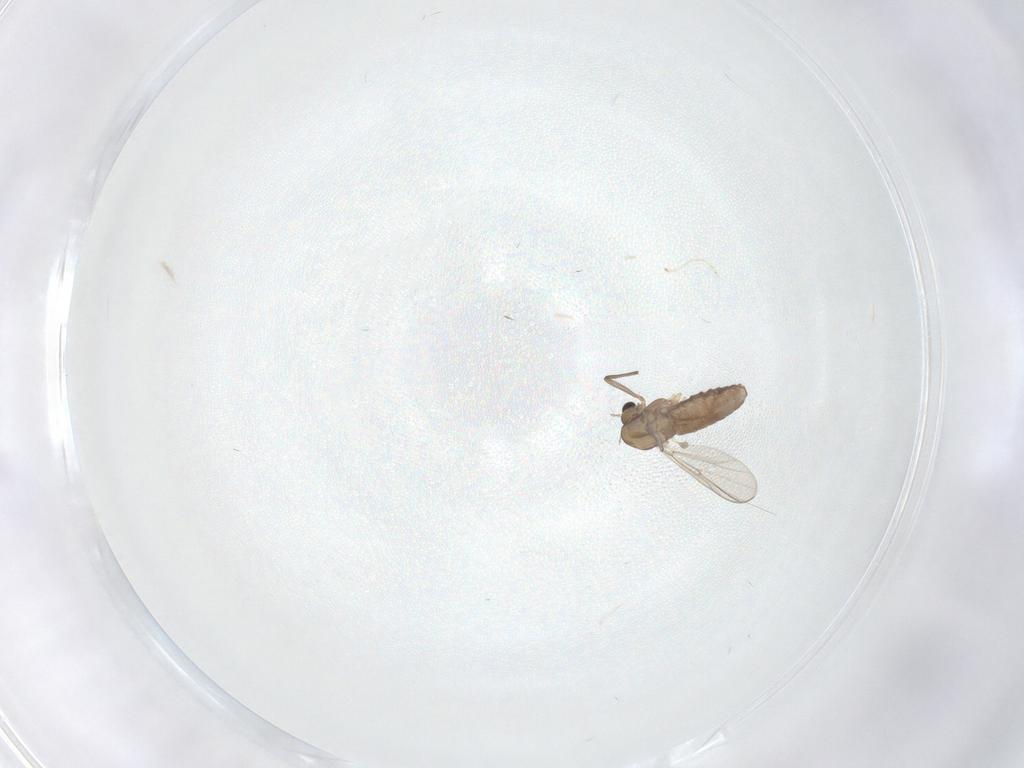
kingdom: Animalia
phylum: Arthropoda
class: Insecta
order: Diptera
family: Chironomidae
